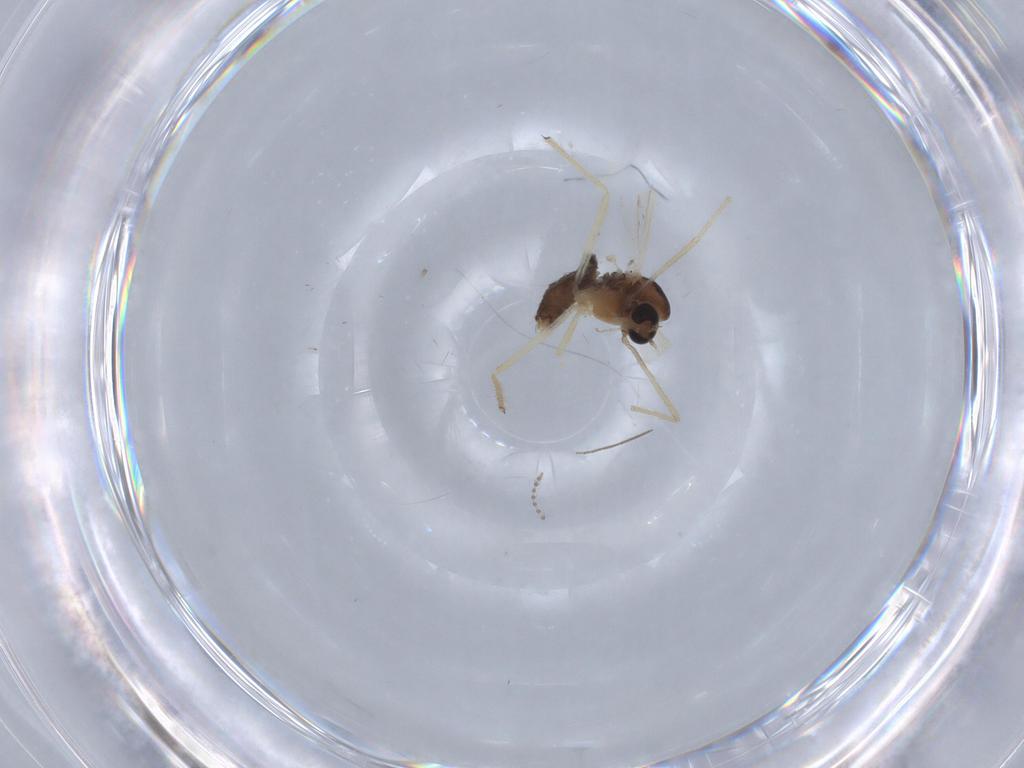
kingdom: Animalia
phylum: Arthropoda
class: Insecta
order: Diptera
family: Chironomidae
